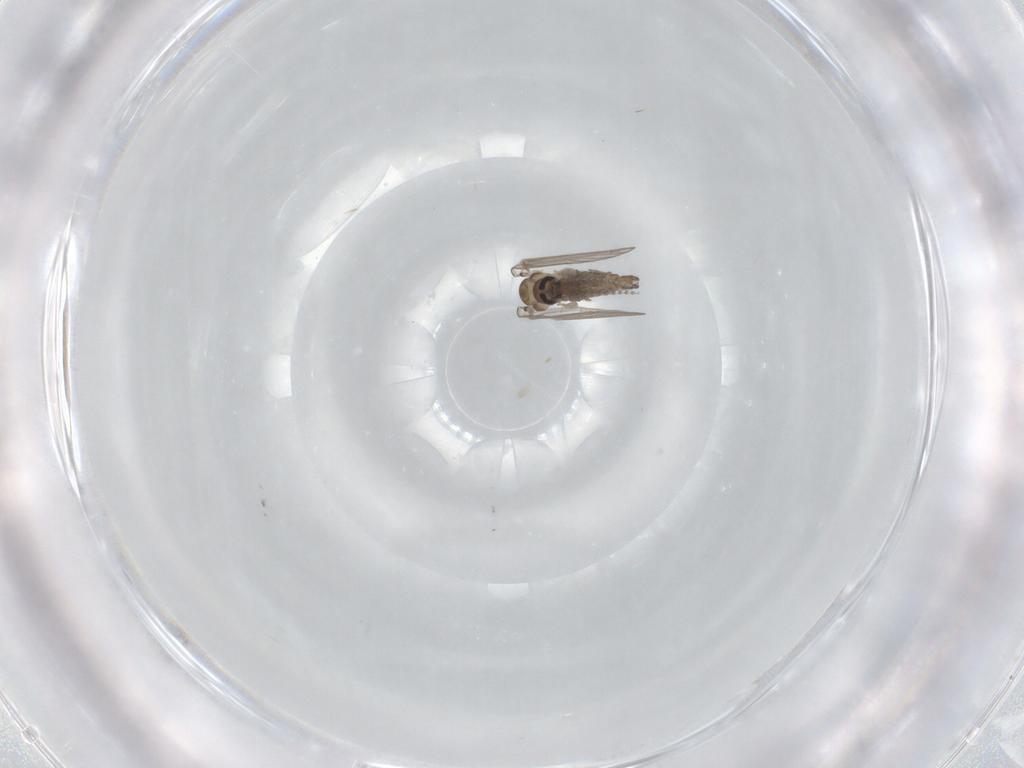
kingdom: Animalia
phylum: Arthropoda
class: Insecta
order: Diptera
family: Psychodidae
